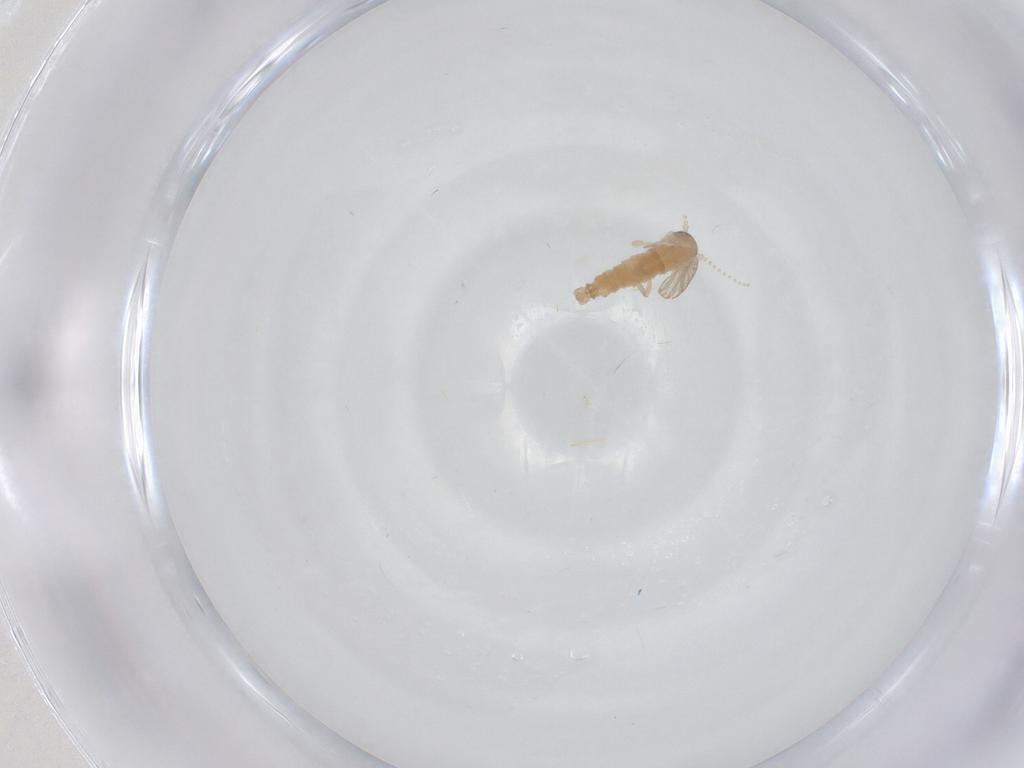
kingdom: Animalia
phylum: Arthropoda
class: Insecta
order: Diptera
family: Psychodidae
